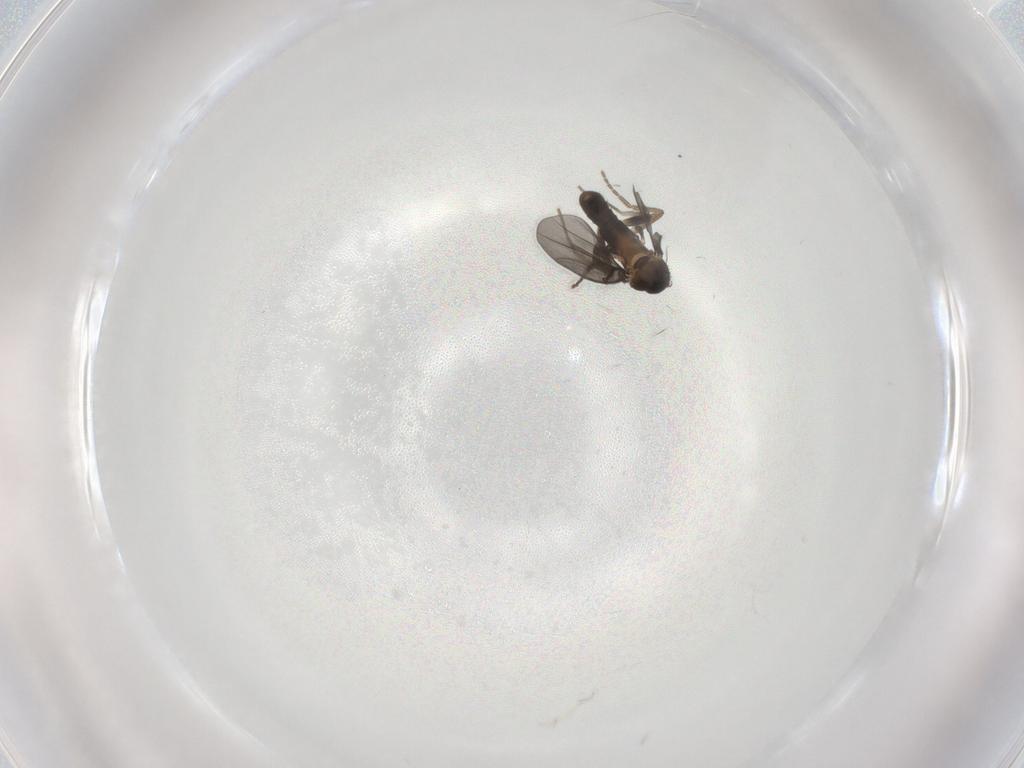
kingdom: Animalia
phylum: Arthropoda
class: Insecta
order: Diptera
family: Phoridae
